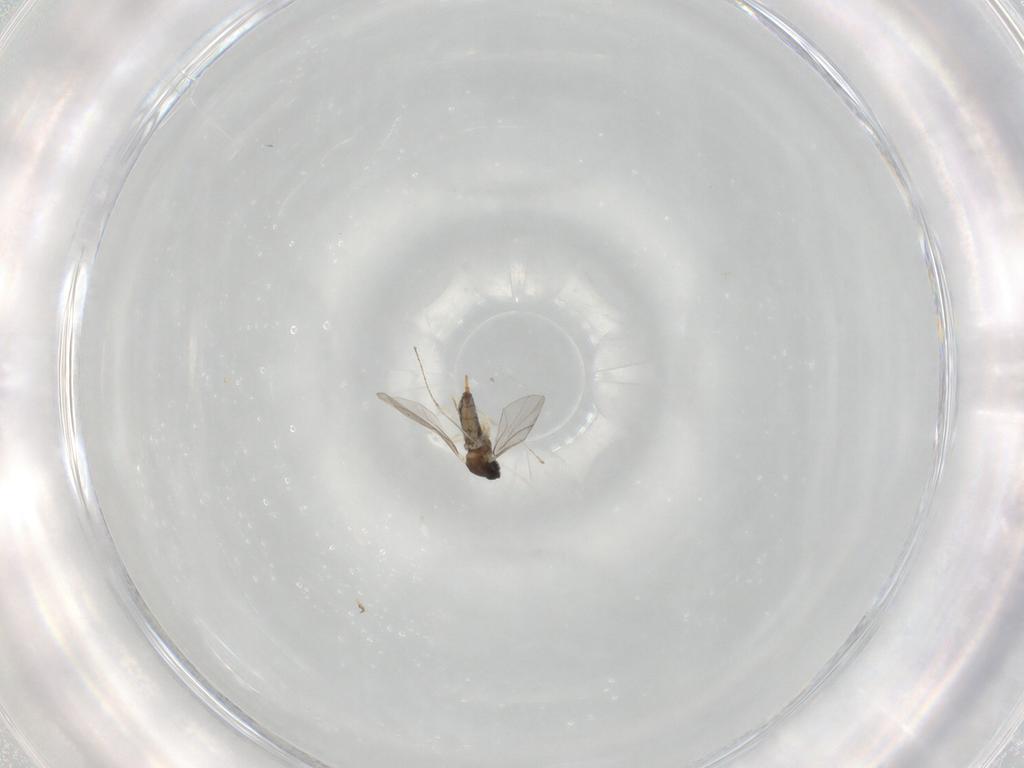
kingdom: Animalia
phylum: Arthropoda
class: Insecta
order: Diptera
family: Cecidomyiidae
